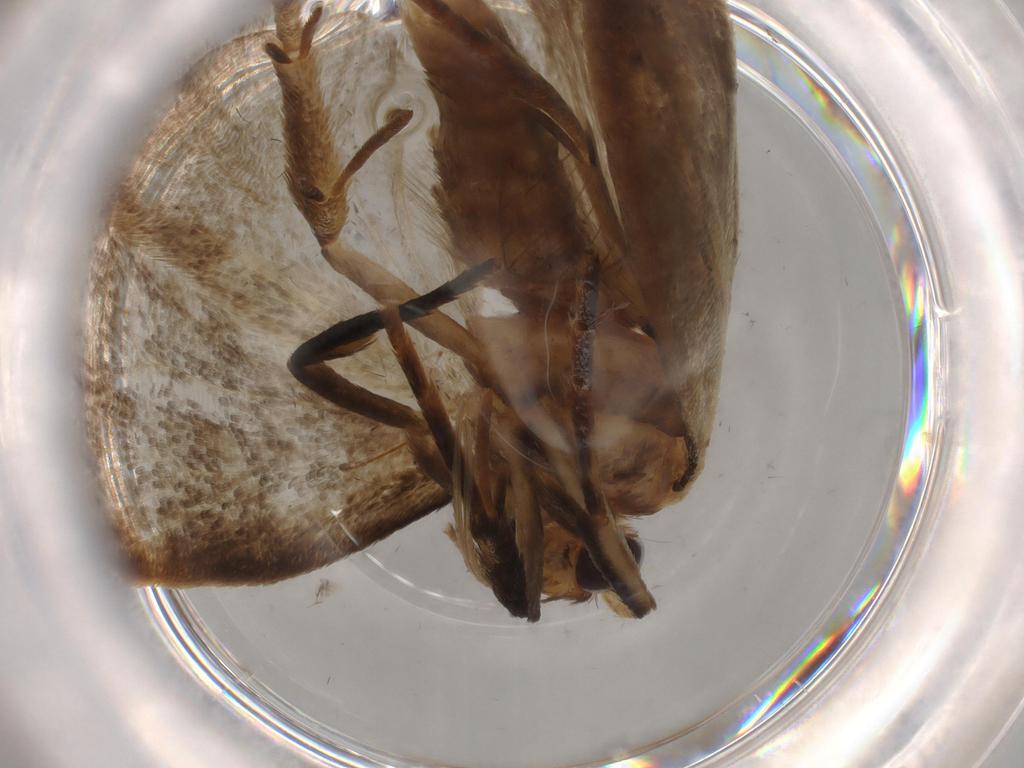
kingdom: Animalia
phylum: Arthropoda
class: Insecta
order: Lepidoptera
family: Oecophoridae
